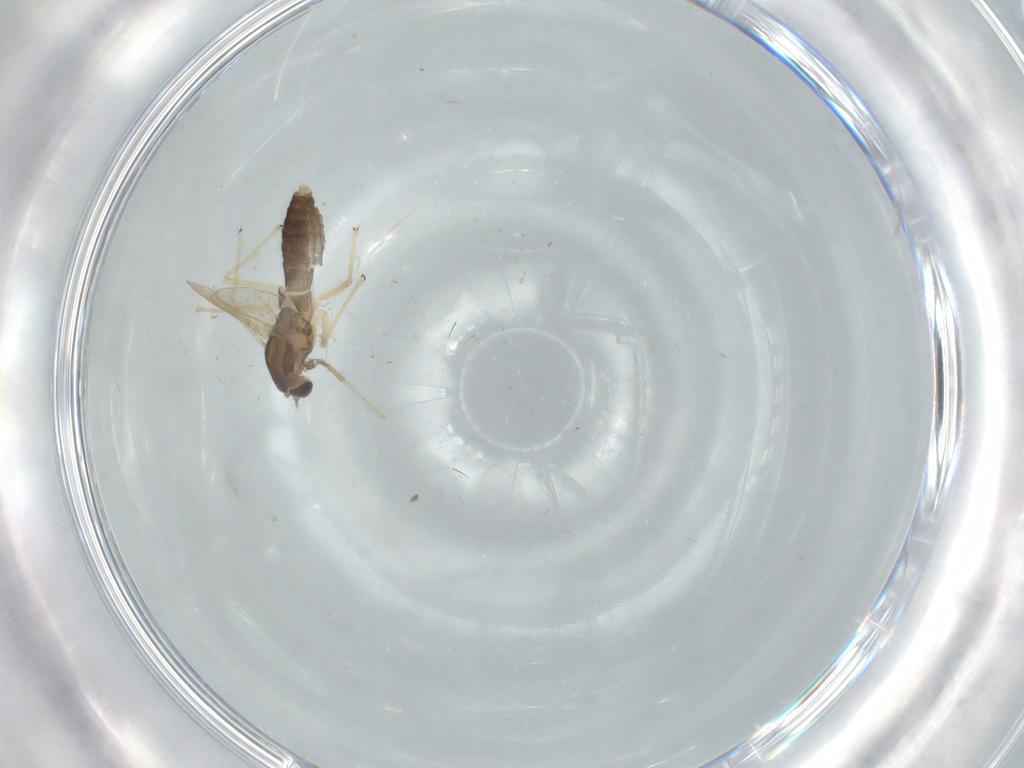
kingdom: Animalia
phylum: Arthropoda
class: Insecta
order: Diptera
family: Chironomidae
